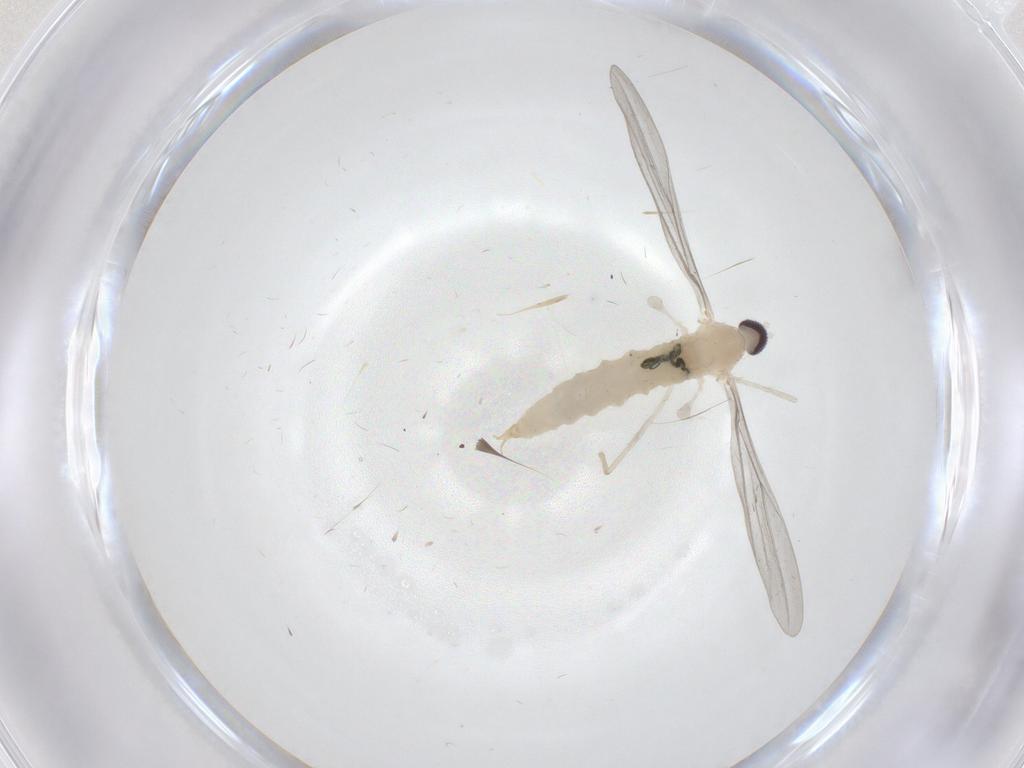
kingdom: Animalia
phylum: Arthropoda
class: Insecta
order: Diptera
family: Cecidomyiidae
